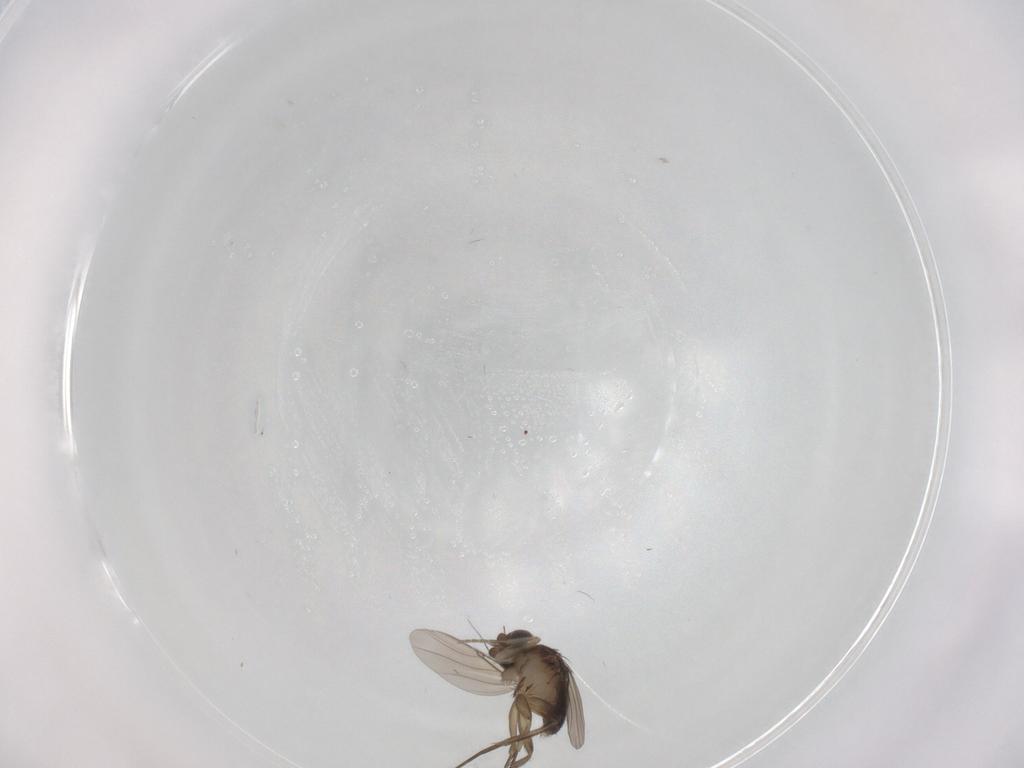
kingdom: Animalia
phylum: Arthropoda
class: Insecta
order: Diptera
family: Phoridae
